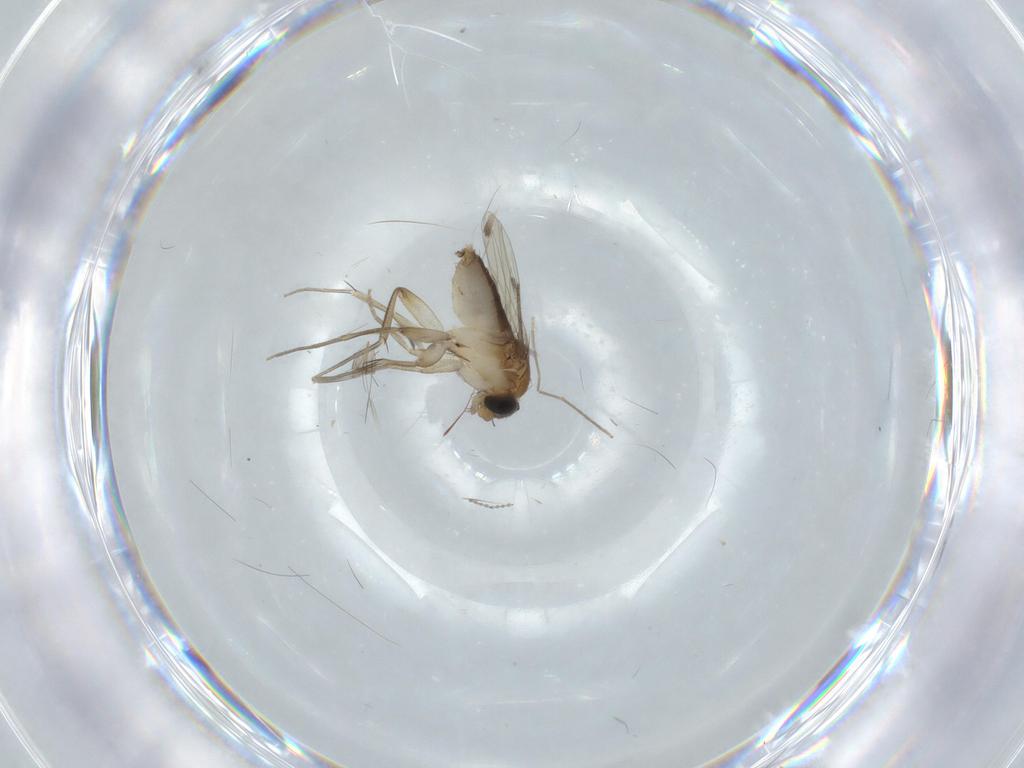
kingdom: Animalia
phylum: Arthropoda
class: Insecta
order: Diptera
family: Phoridae
